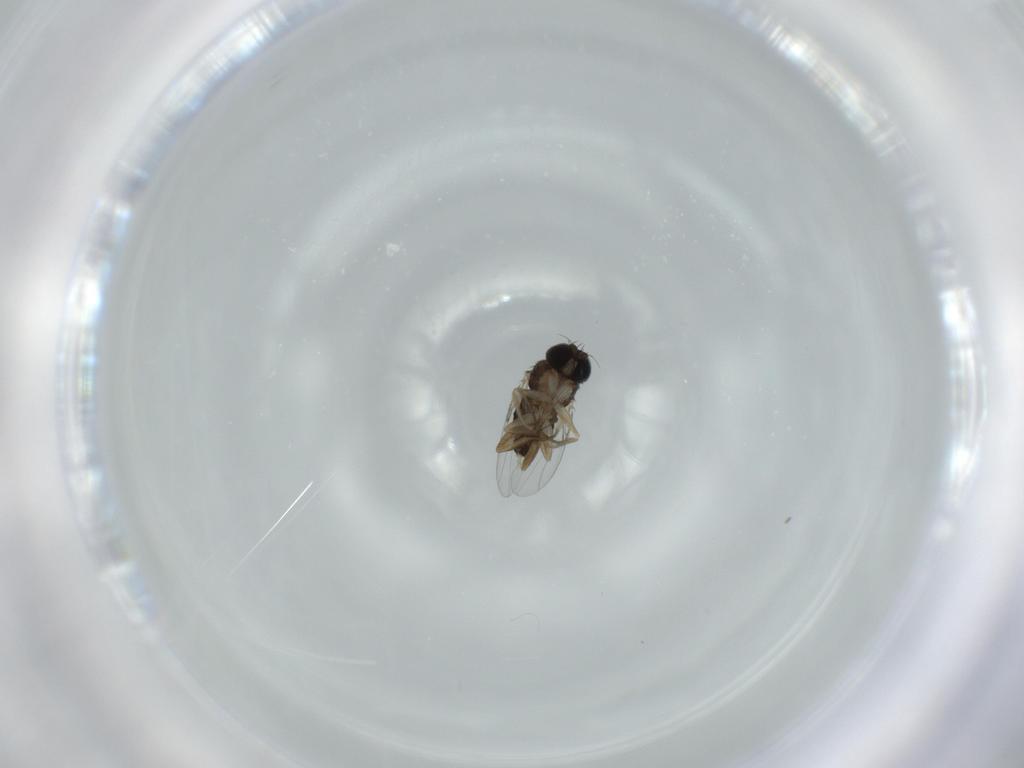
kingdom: Animalia
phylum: Arthropoda
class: Insecta
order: Diptera
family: Phoridae
